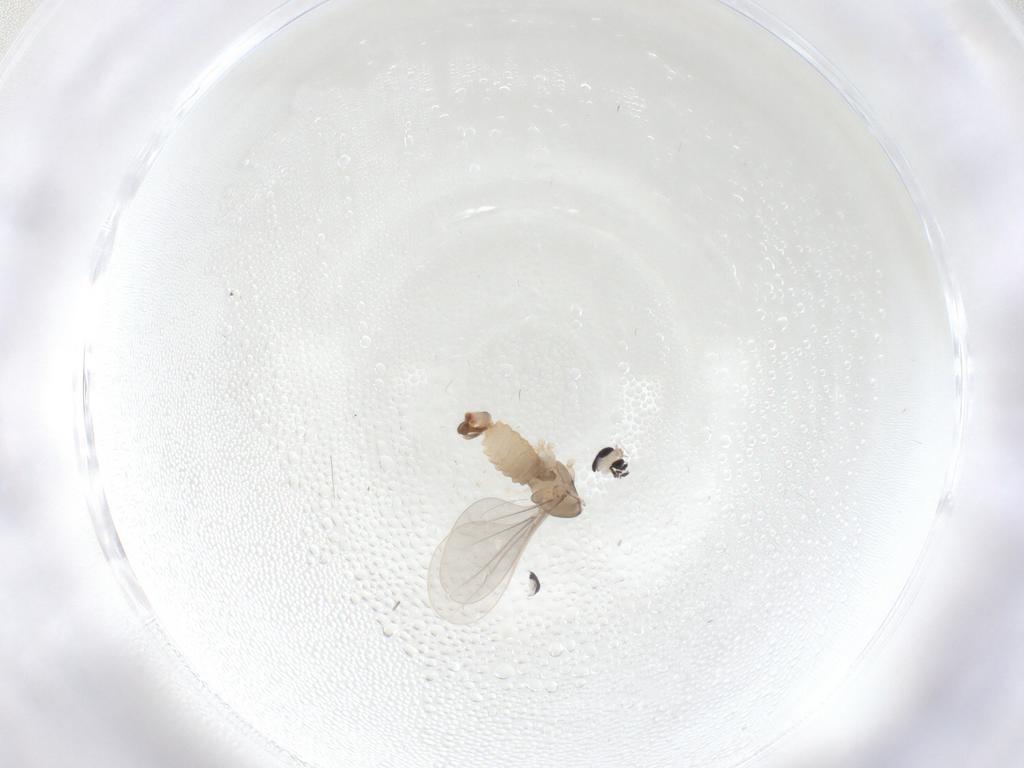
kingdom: Animalia
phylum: Arthropoda
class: Insecta
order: Diptera
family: Cecidomyiidae
